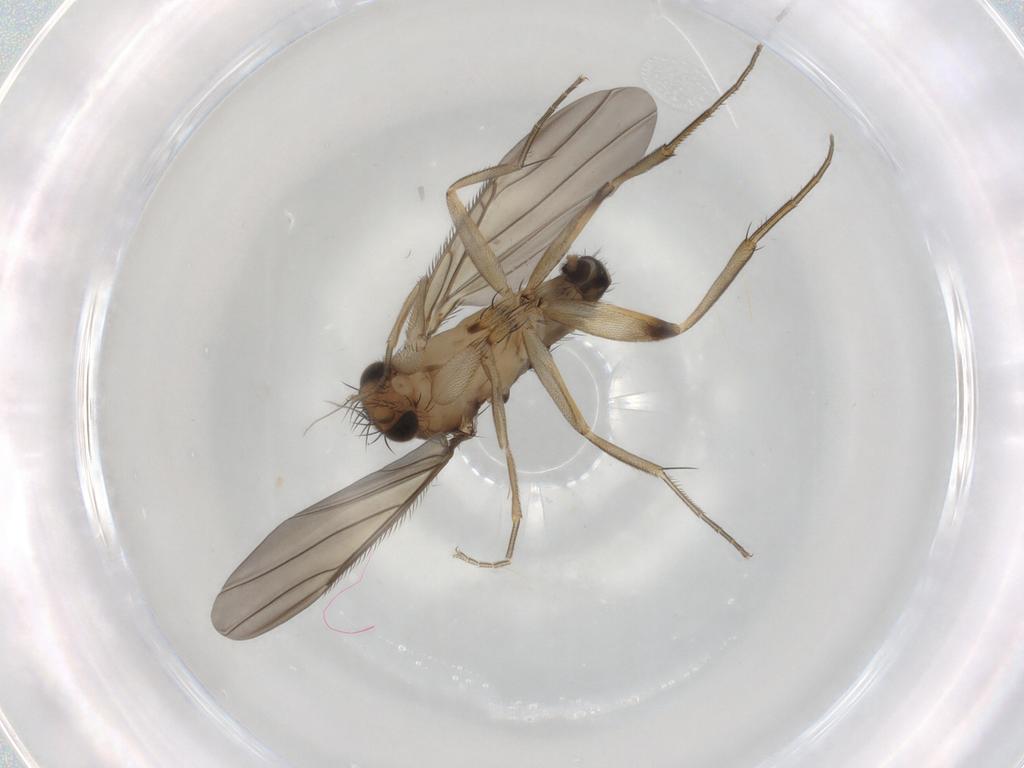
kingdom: Animalia
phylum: Arthropoda
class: Insecta
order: Diptera
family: Phoridae
